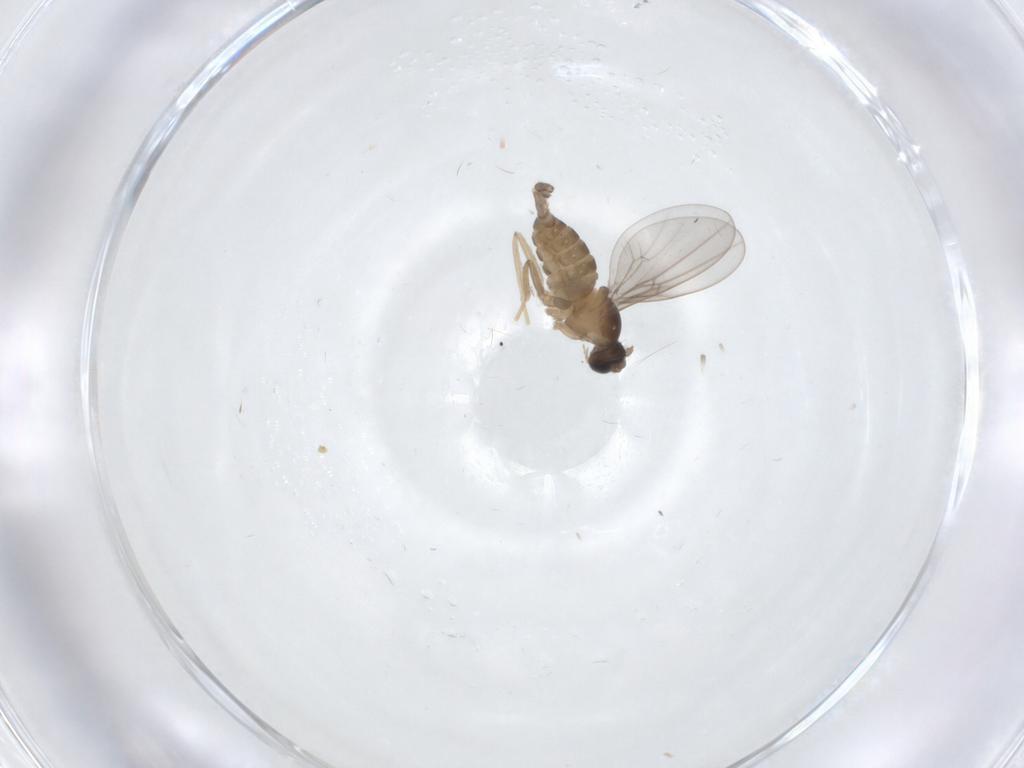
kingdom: Animalia
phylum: Arthropoda
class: Insecta
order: Diptera
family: Cecidomyiidae
